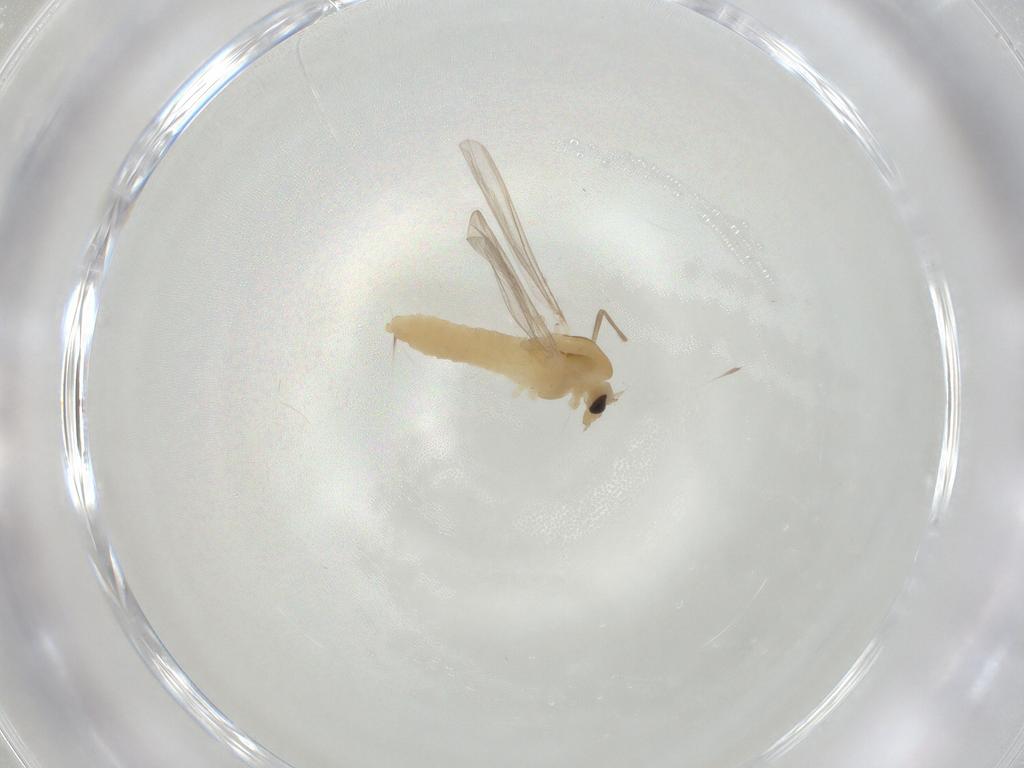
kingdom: Animalia
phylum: Arthropoda
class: Insecta
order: Diptera
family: Chironomidae
